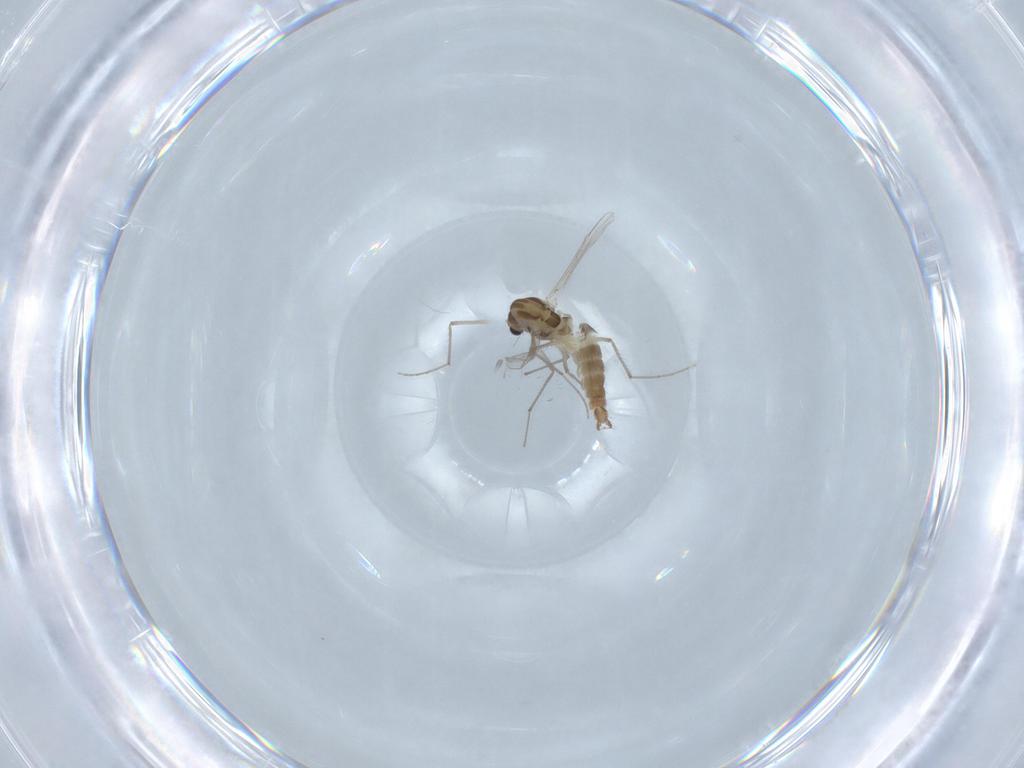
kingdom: Animalia
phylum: Arthropoda
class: Insecta
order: Diptera
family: Chironomidae
